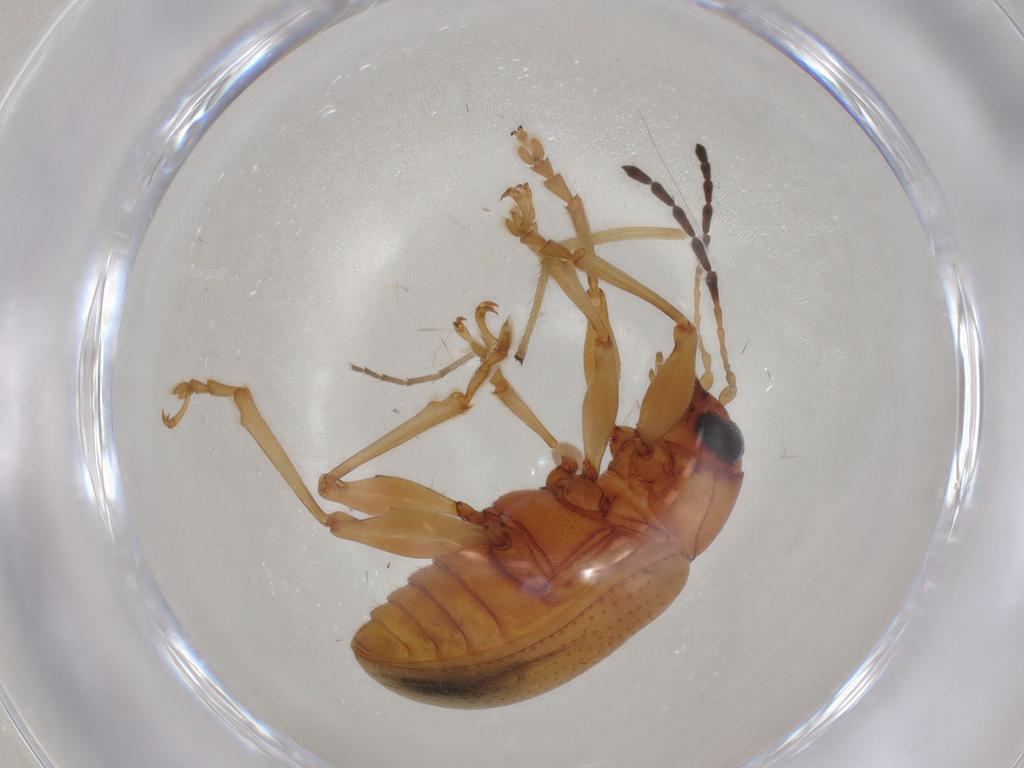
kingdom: Animalia
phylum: Arthropoda
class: Insecta
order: Coleoptera
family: Chrysomelidae
